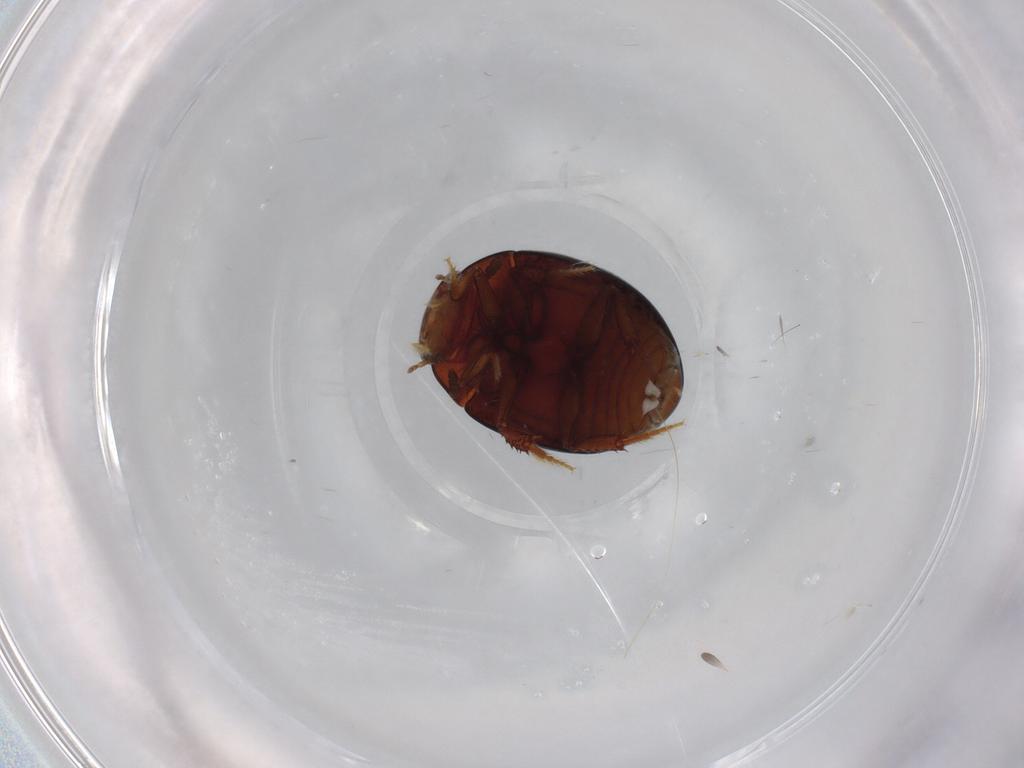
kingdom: Animalia
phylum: Arthropoda
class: Insecta
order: Coleoptera
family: Hydrophilidae
